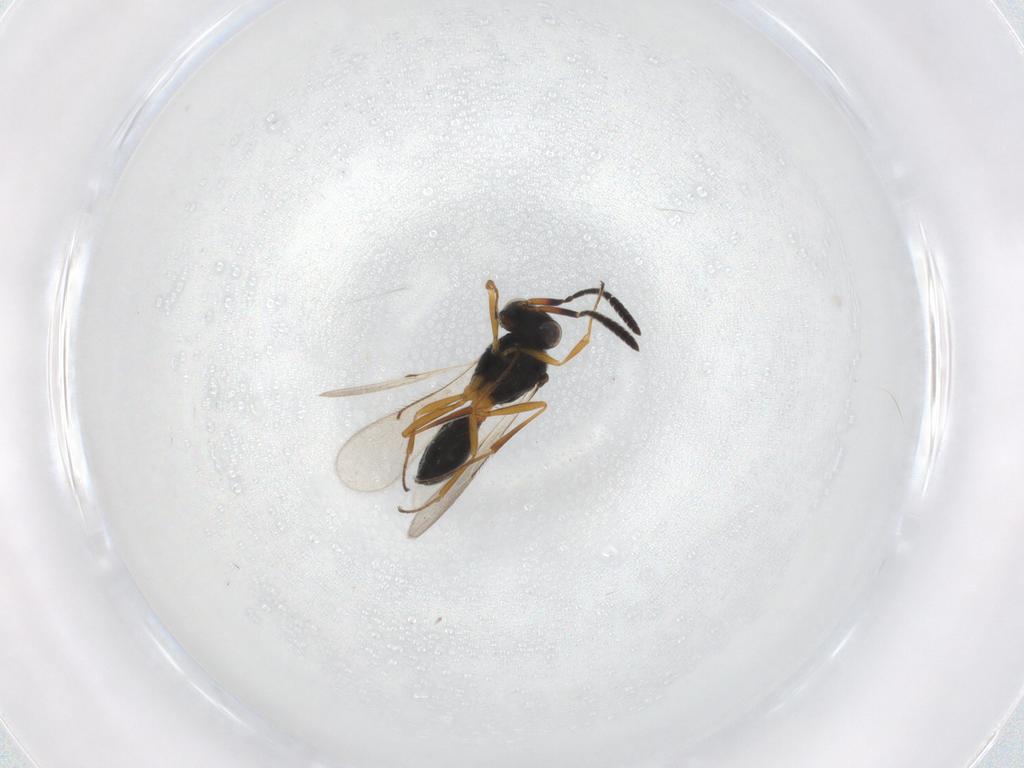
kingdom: Animalia
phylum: Arthropoda
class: Insecta
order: Hymenoptera
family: Scelionidae
